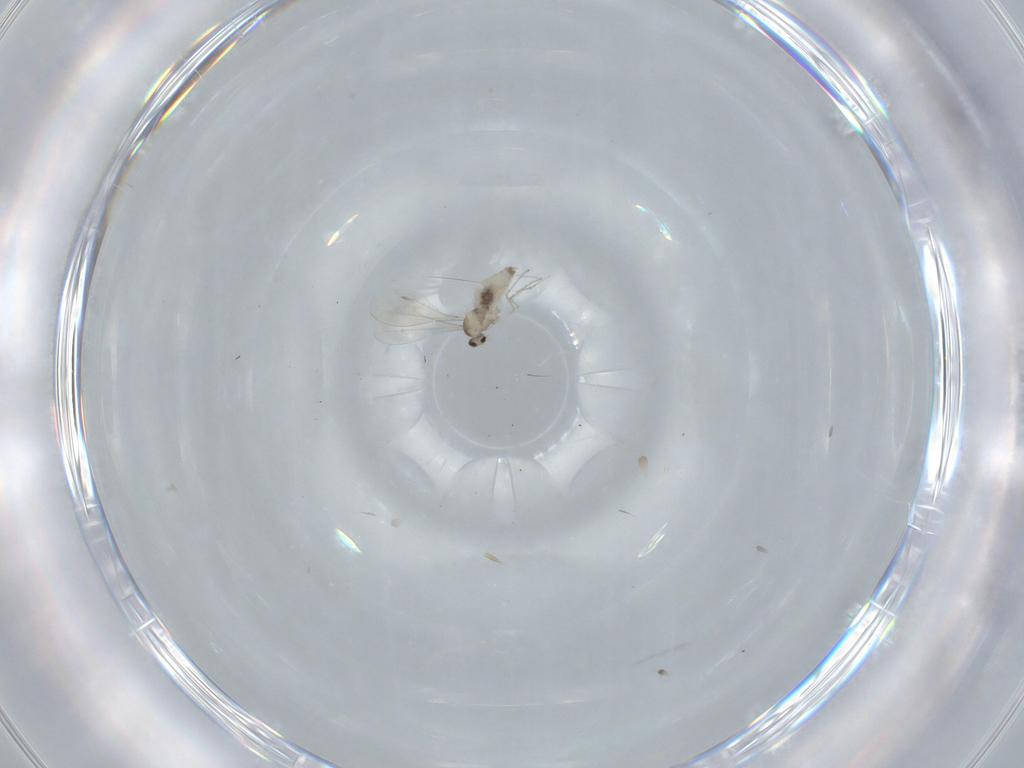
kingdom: Animalia
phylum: Arthropoda
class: Insecta
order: Diptera
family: Cecidomyiidae
